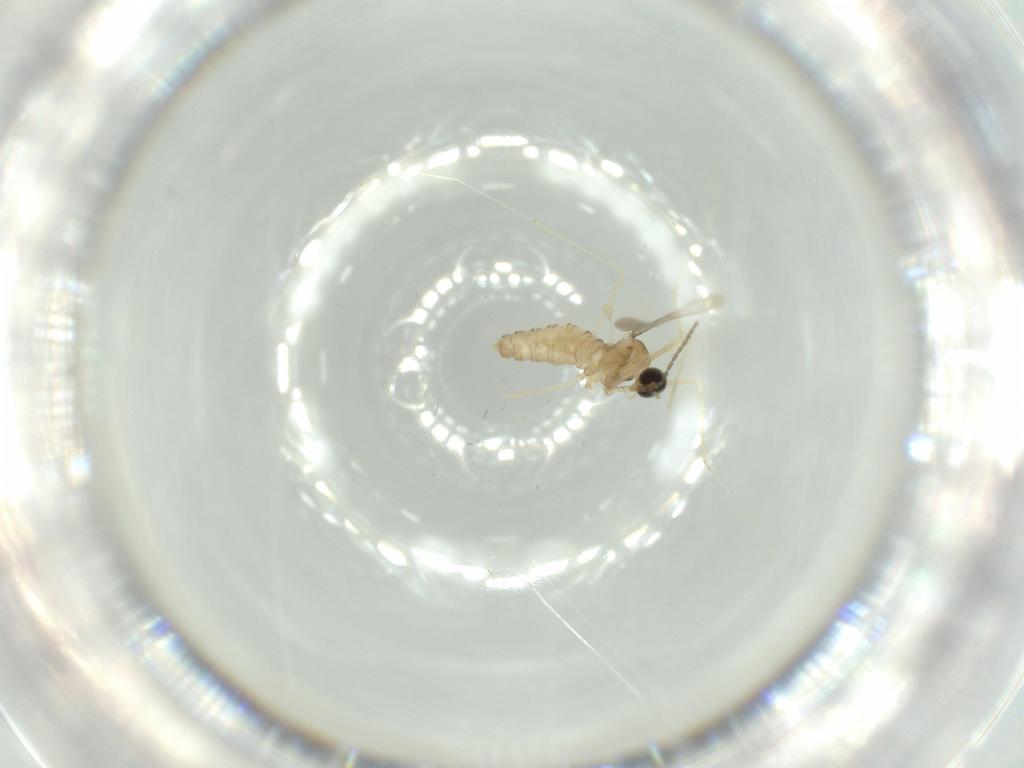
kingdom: Animalia
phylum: Arthropoda
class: Insecta
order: Diptera
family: Cecidomyiidae
